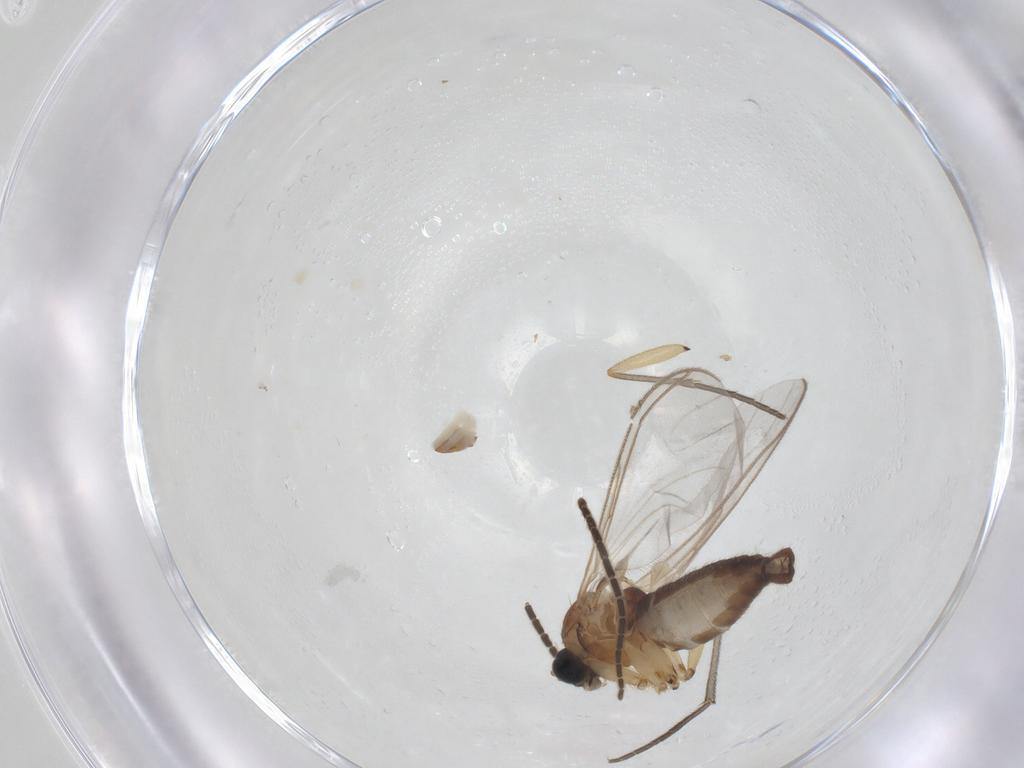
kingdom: Animalia
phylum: Arthropoda
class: Insecta
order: Diptera
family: Sciaridae
